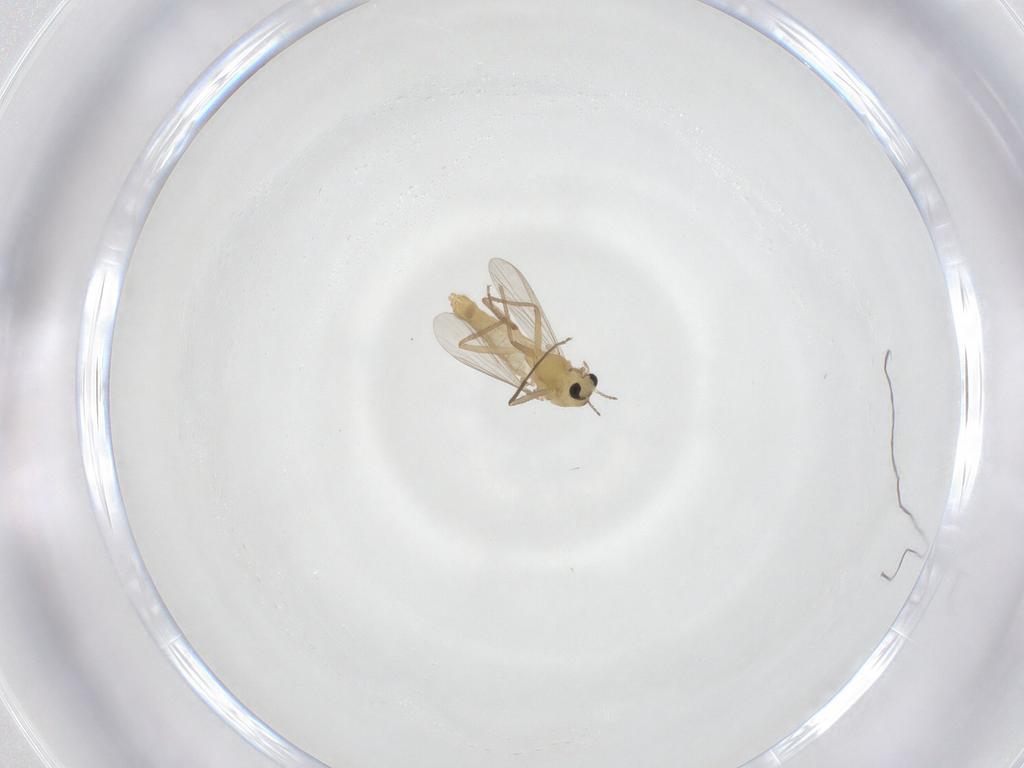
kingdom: Animalia
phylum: Arthropoda
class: Insecta
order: Diptera
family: Chironomidae
